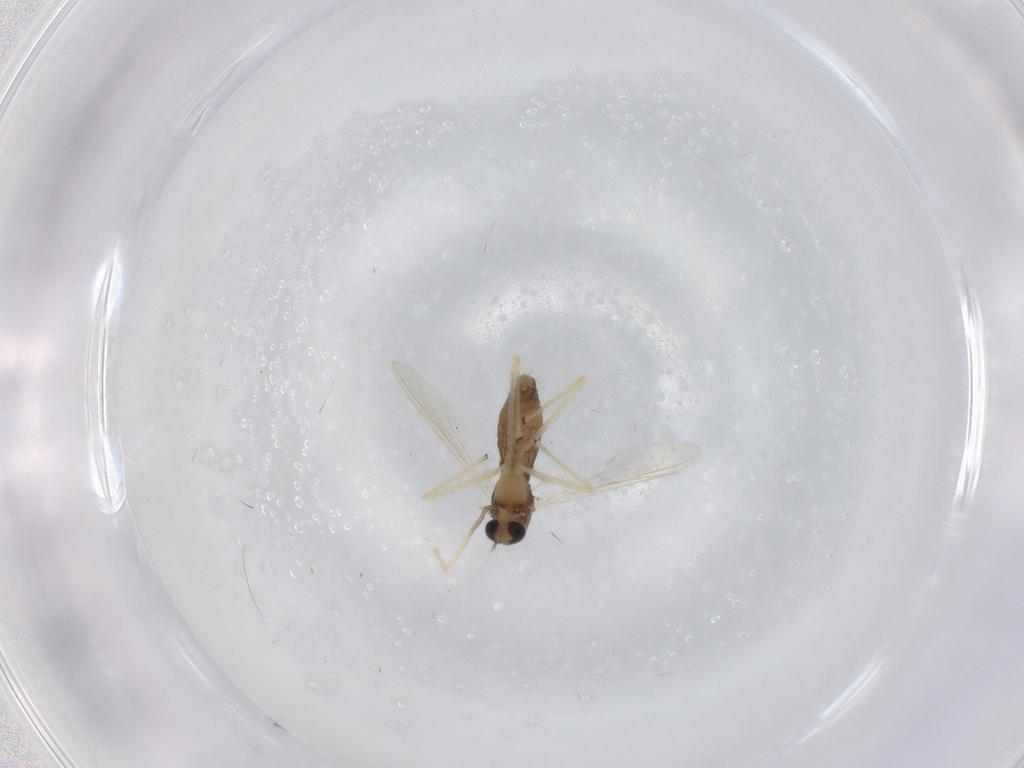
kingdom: Animalia
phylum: Arthropoda
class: Insecta
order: Diptera
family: Chironomidae
